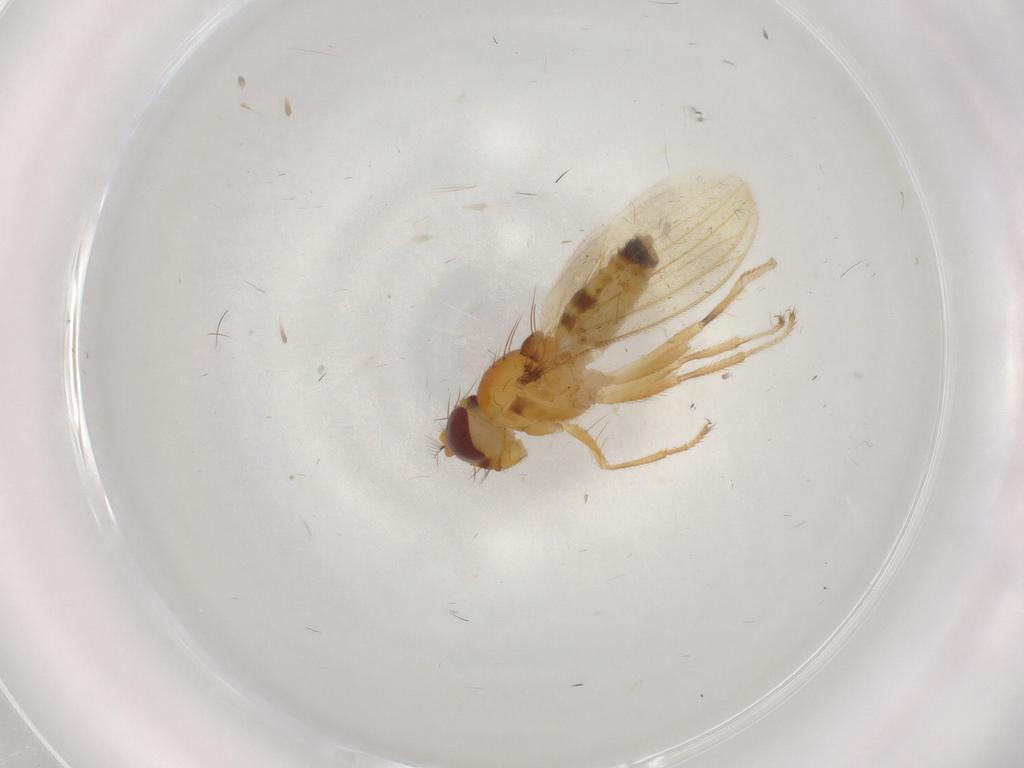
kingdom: Animalia
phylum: Arthropoda
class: Insecta
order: Diptera
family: Periscelididae
